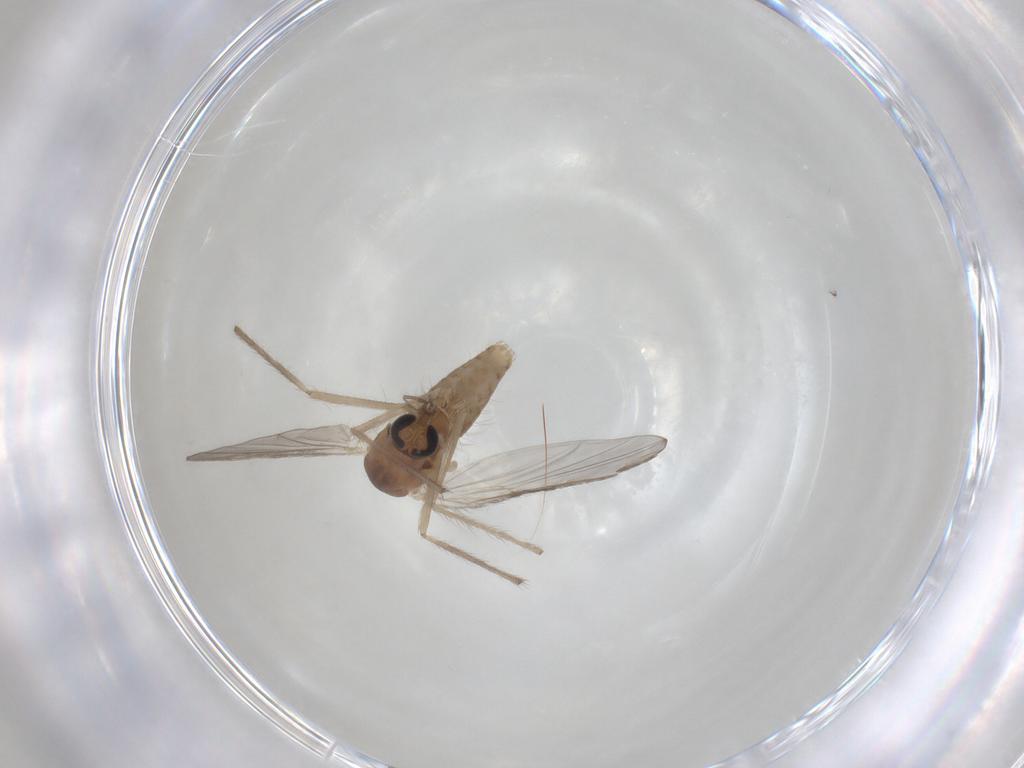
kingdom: Animalia
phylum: Arthropoda
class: Insecta
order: Diptera
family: Chironomidae
